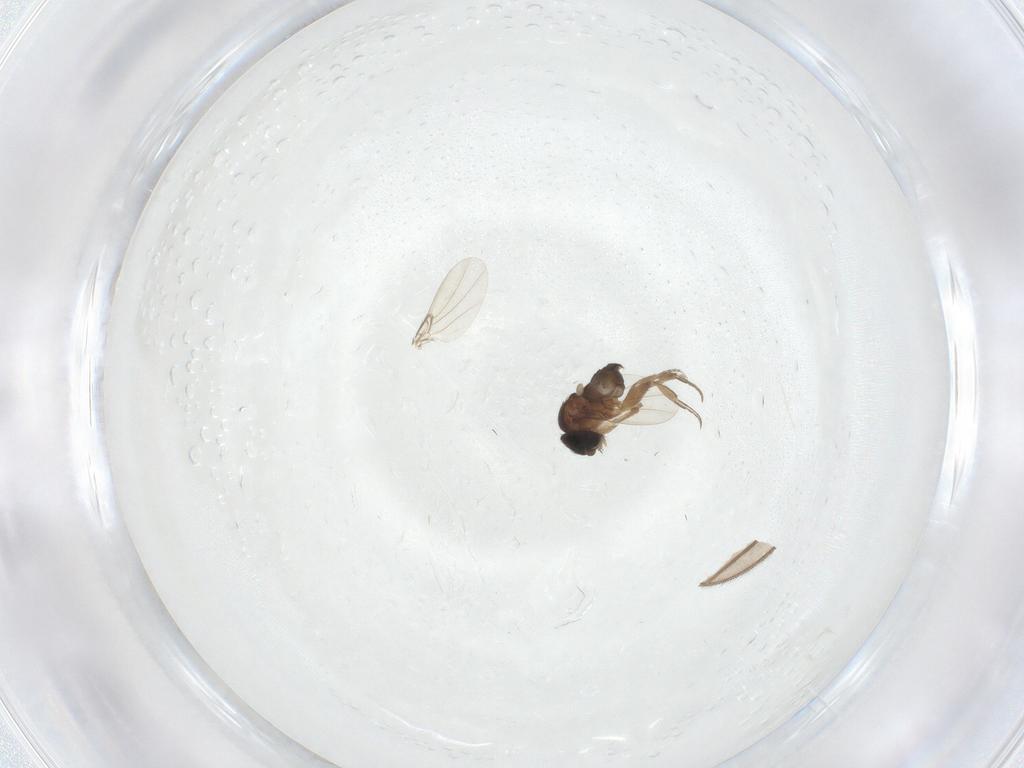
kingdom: Animalia
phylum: Arthropoda
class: Insecta
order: Diptera
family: Phoridae
